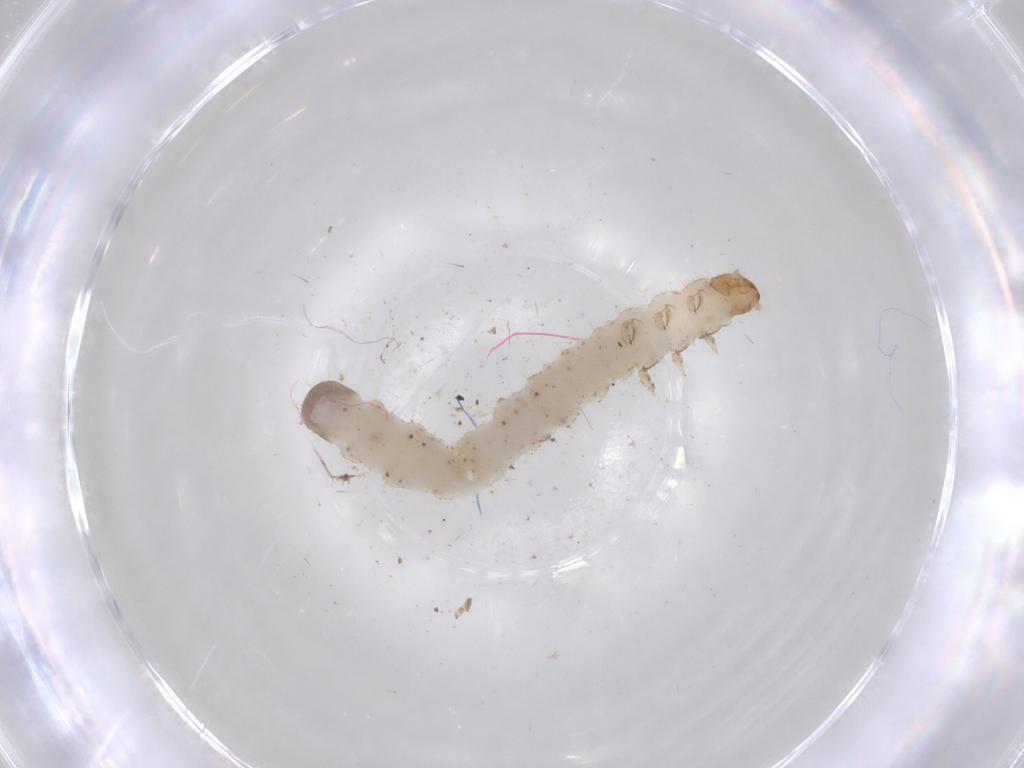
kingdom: Animalia
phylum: Arthropoda
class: Insecta
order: Coleoptera
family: Chrysomelidae
